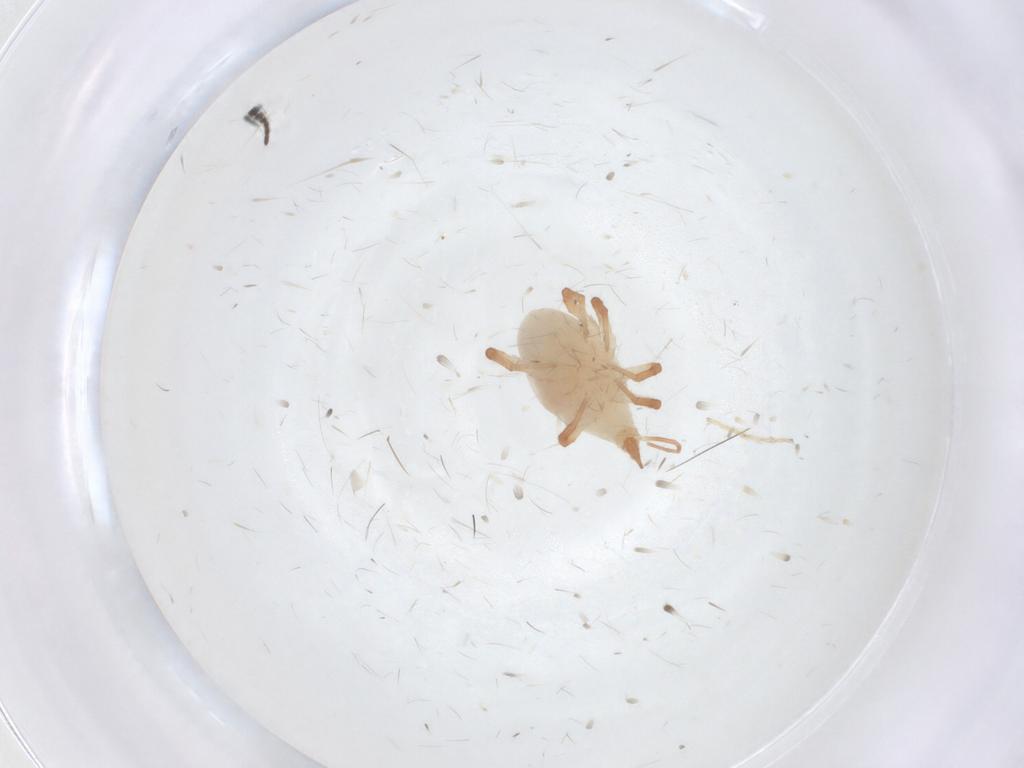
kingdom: Animalia
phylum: Arthropoda
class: Arachnida
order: Trombidiformes
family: Bdellidae
